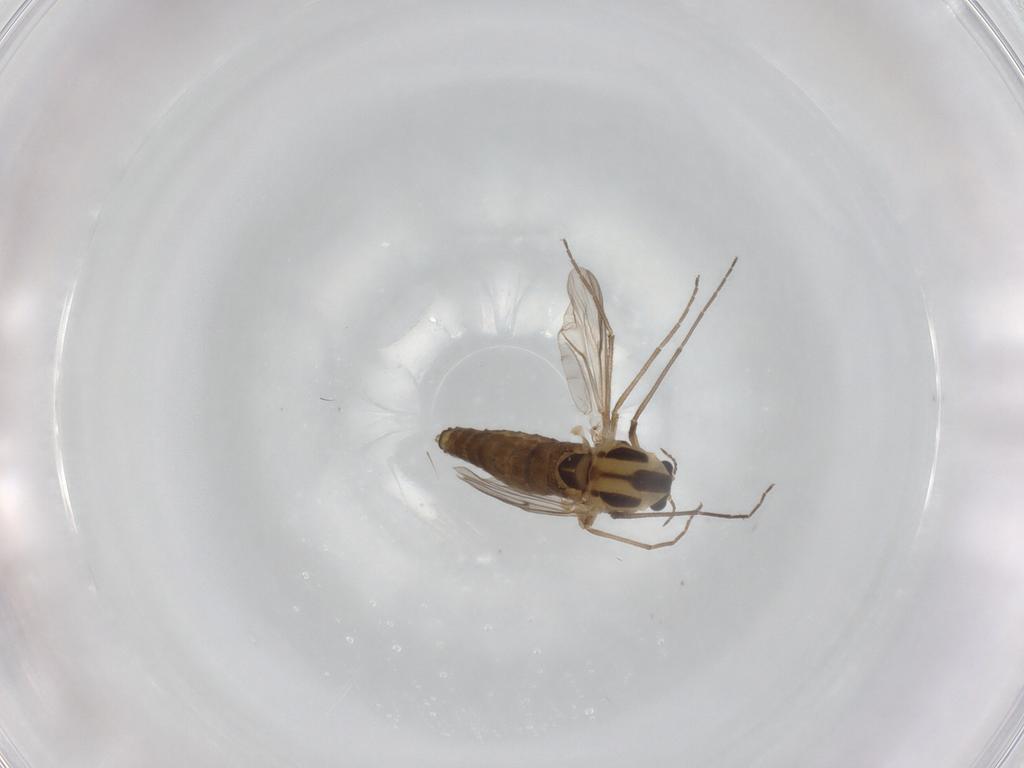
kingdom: Animalia
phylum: Arthropoda
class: Insecta
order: Diptera
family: Chironomidae
